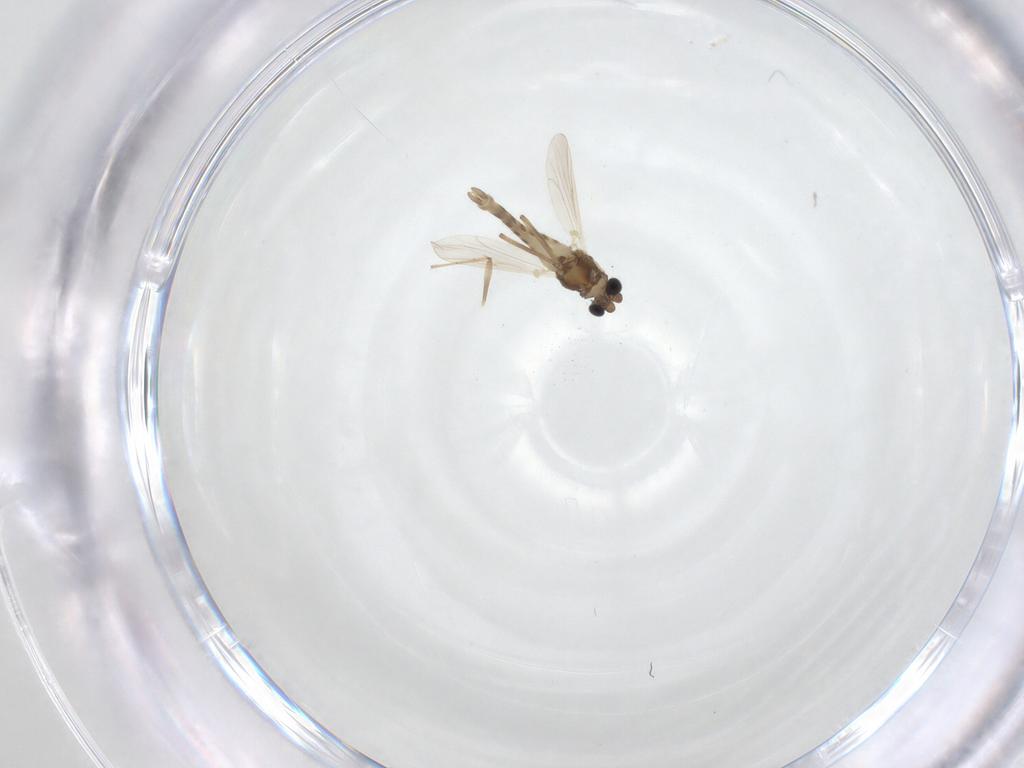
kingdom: Animalia
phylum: Arthropoda
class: Insecta
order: Diptera
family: Chironomidae
